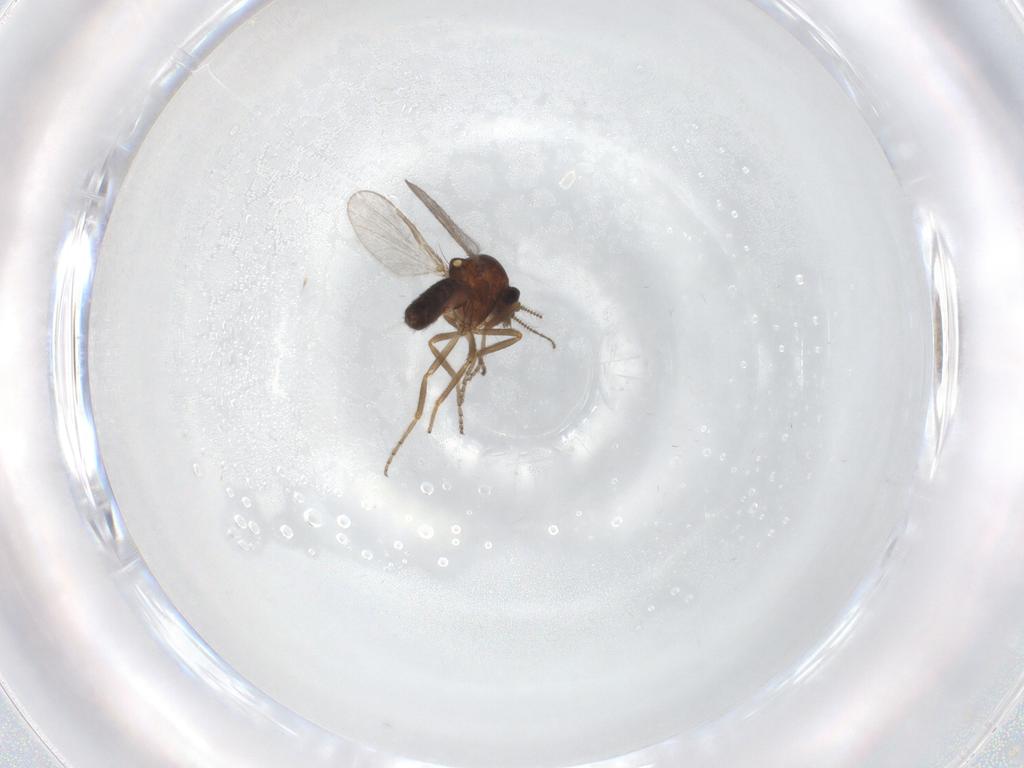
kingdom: Animalia
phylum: Arthropoda
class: Insecta
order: Diptera
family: Ceratopogonidae
